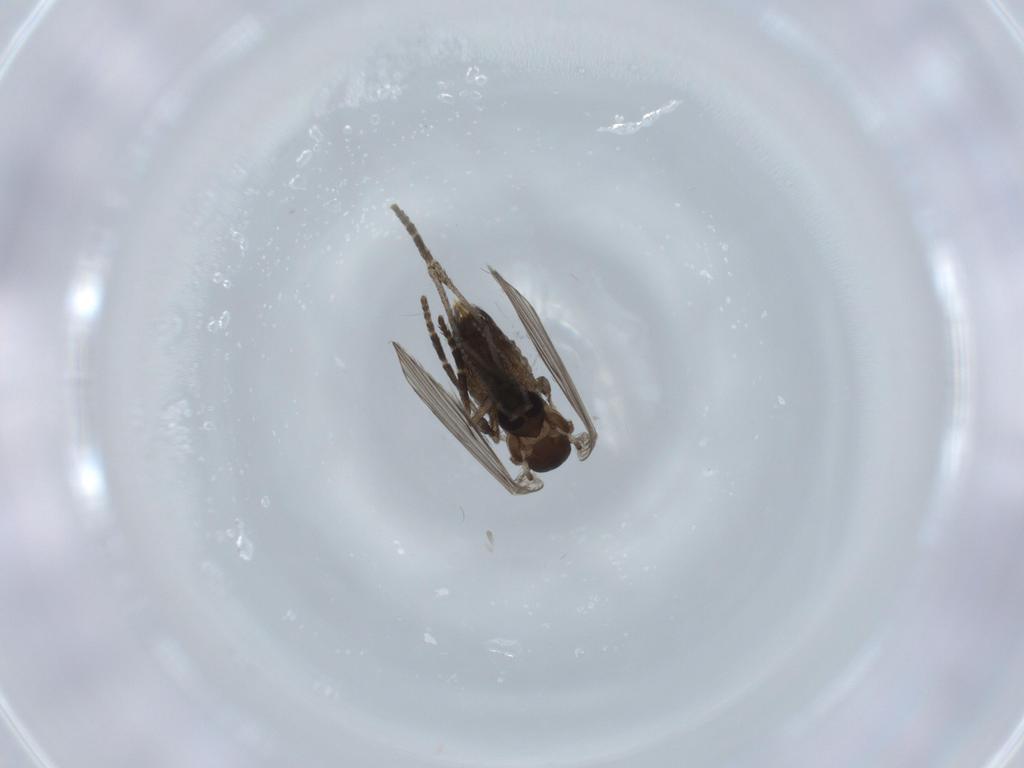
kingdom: Animalia
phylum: Arthropoda
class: Insecta
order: Diptera
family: Psychodidae
